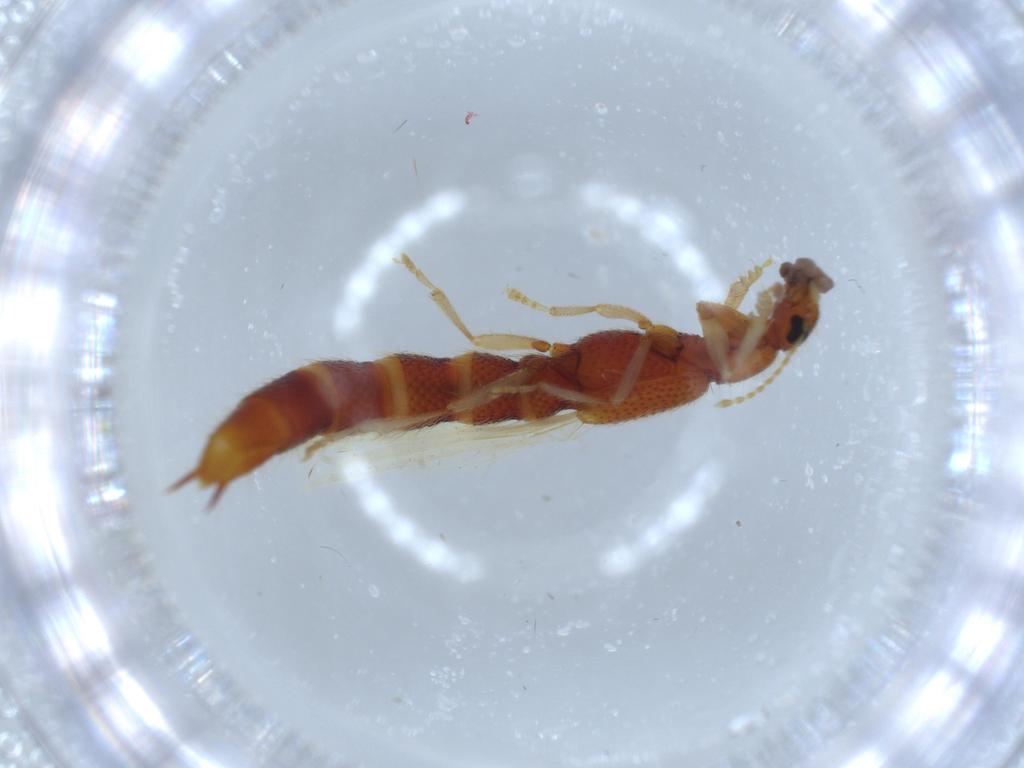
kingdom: Animalia
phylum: Arthropoda
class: Insecta
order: Coleoptera
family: Staphylinidae
